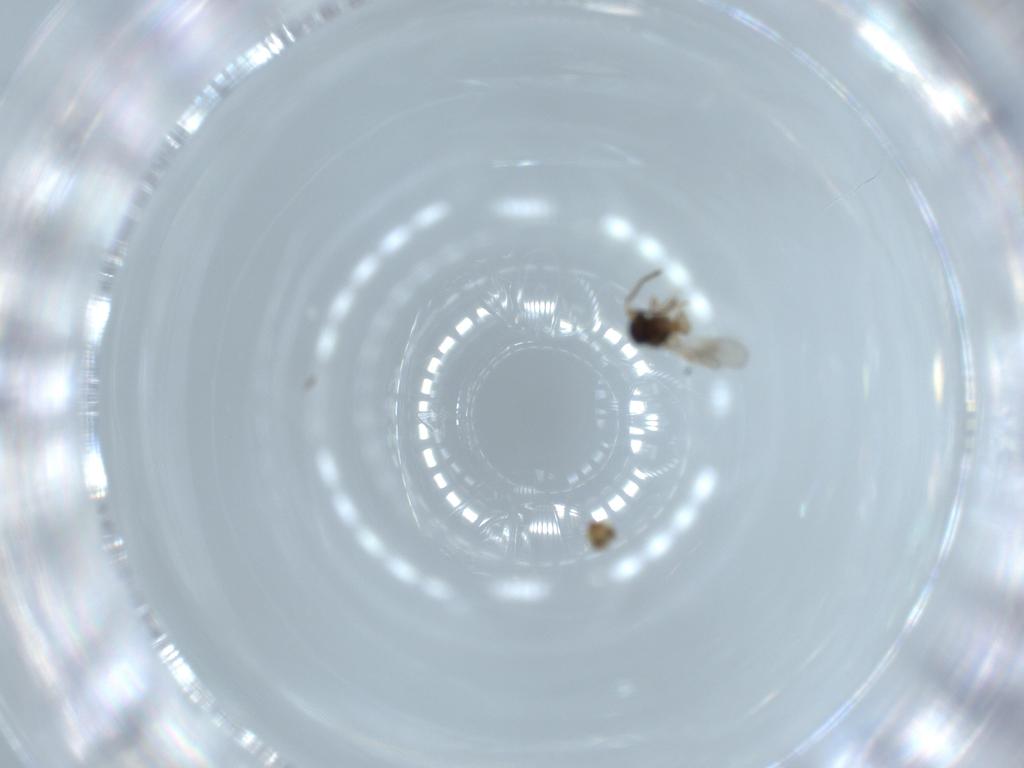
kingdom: Animalia
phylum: Arthropoda
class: Insecta
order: Hymenoptera
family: Scelionidae
